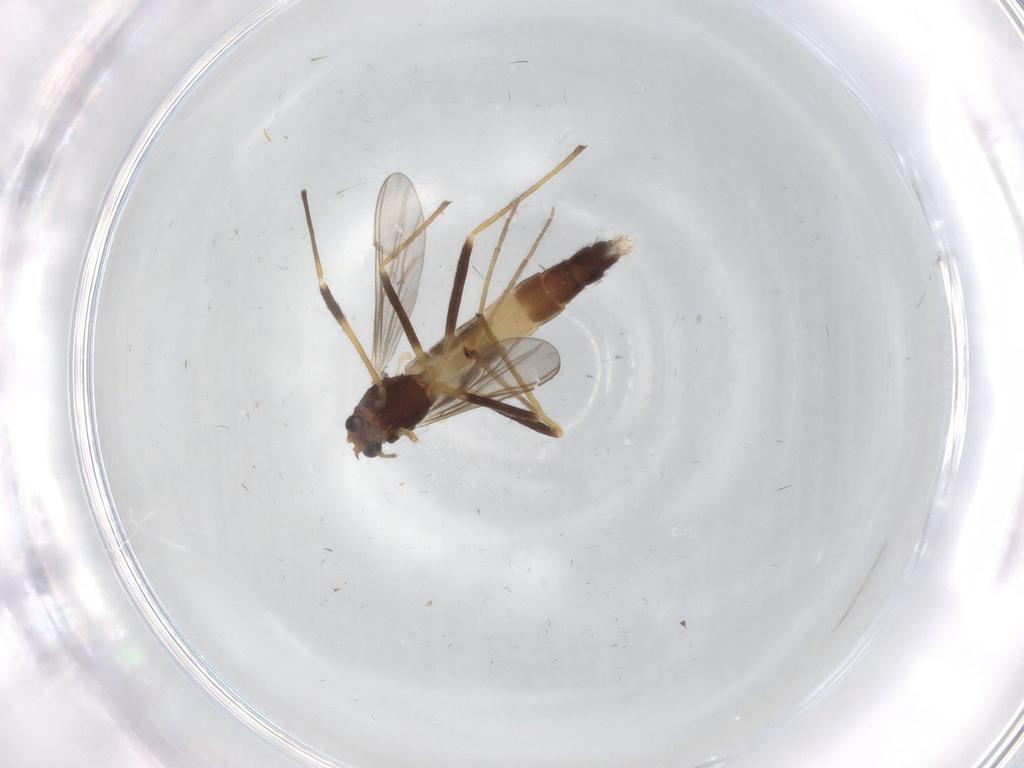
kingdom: Animalia
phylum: Arthropoda
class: Insecta
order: Diptera
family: Phoridae
